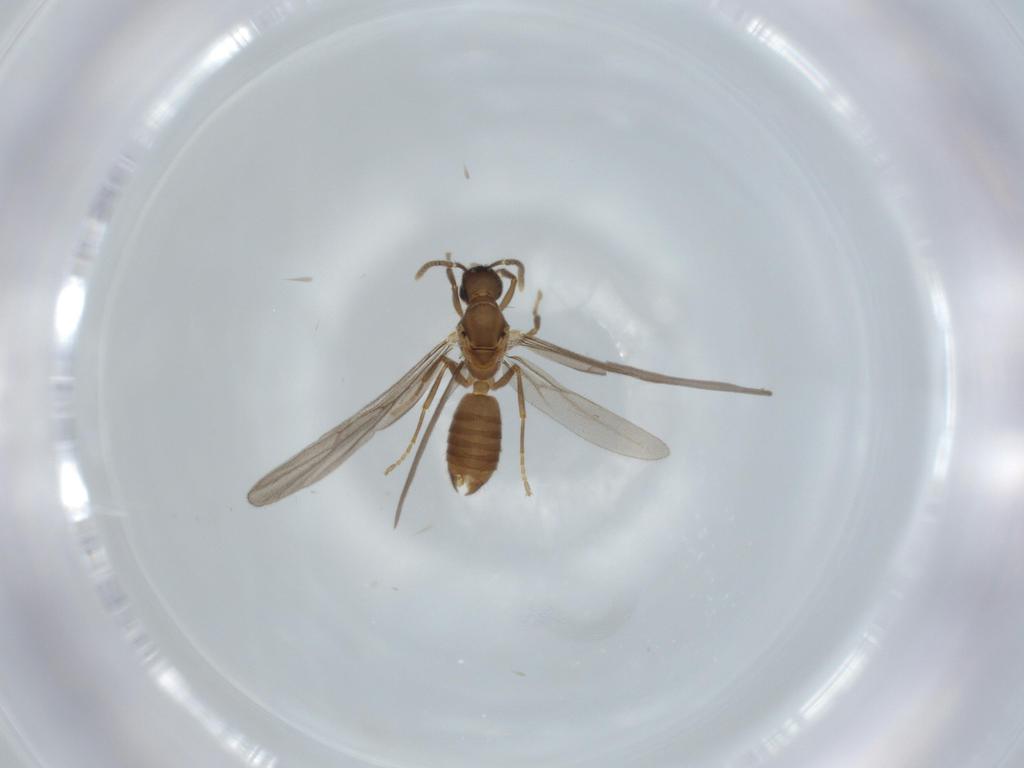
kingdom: Animalia
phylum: Arthropoda
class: Insecta
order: Hymenoptera
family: Formicidae
